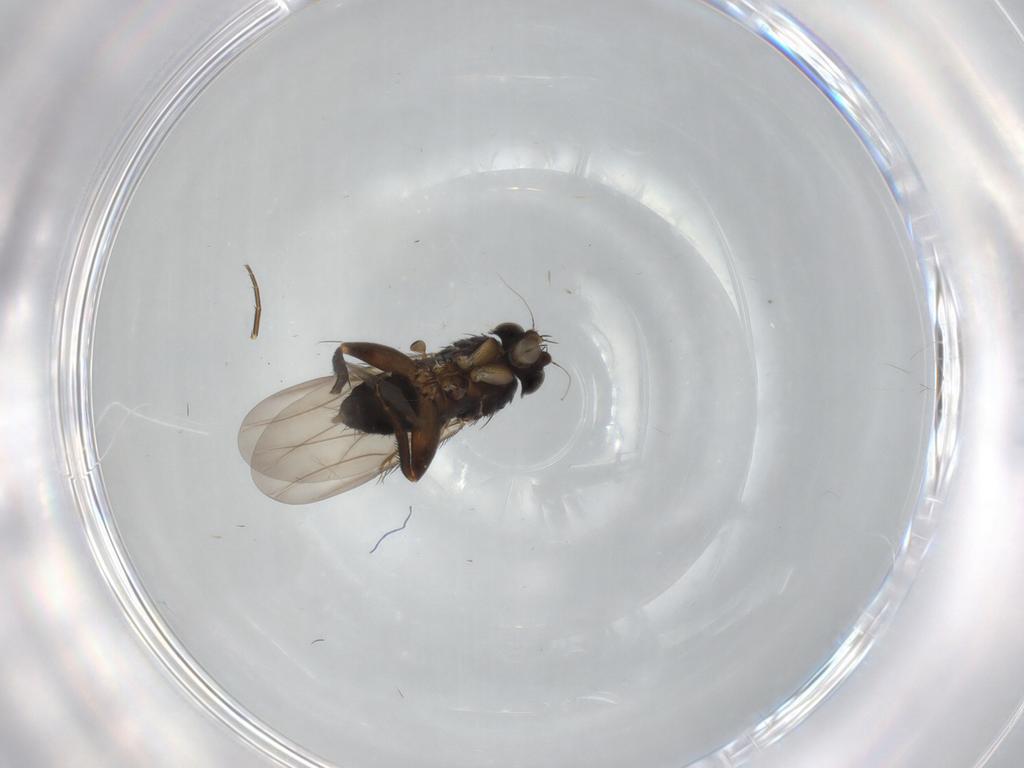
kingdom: Animalia
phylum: Arthropoda
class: Insecta
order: Diptera
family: Phoridae
